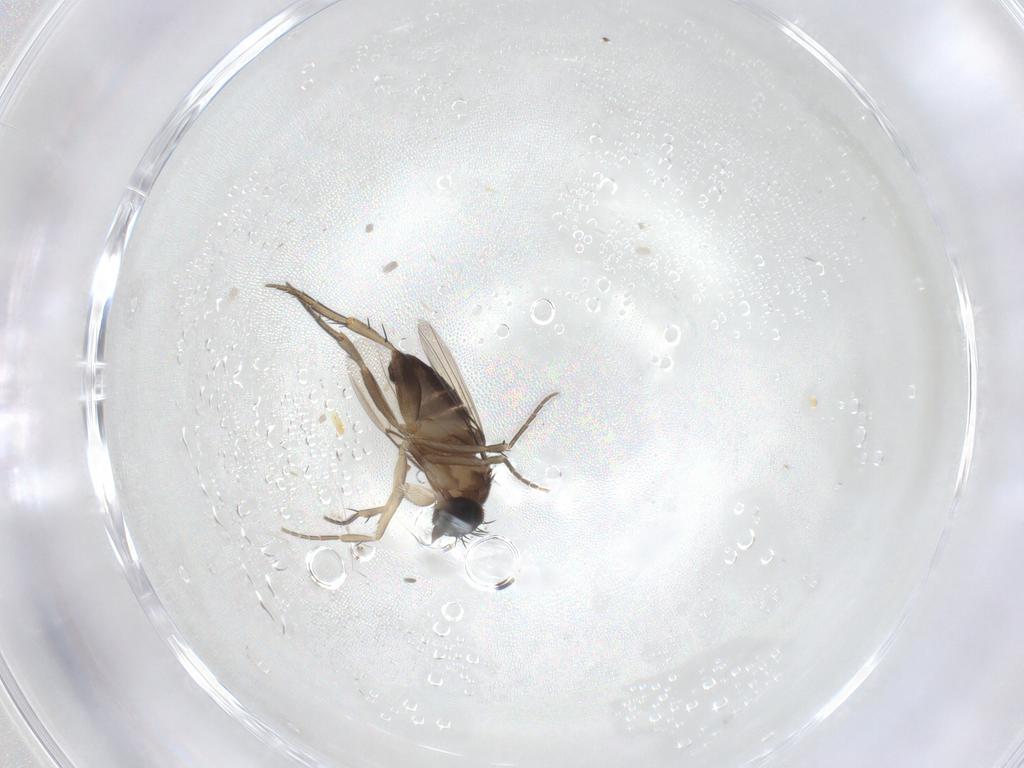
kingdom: Animalia
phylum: Arthropoda
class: Insecta
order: Diptera
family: Phoridae
